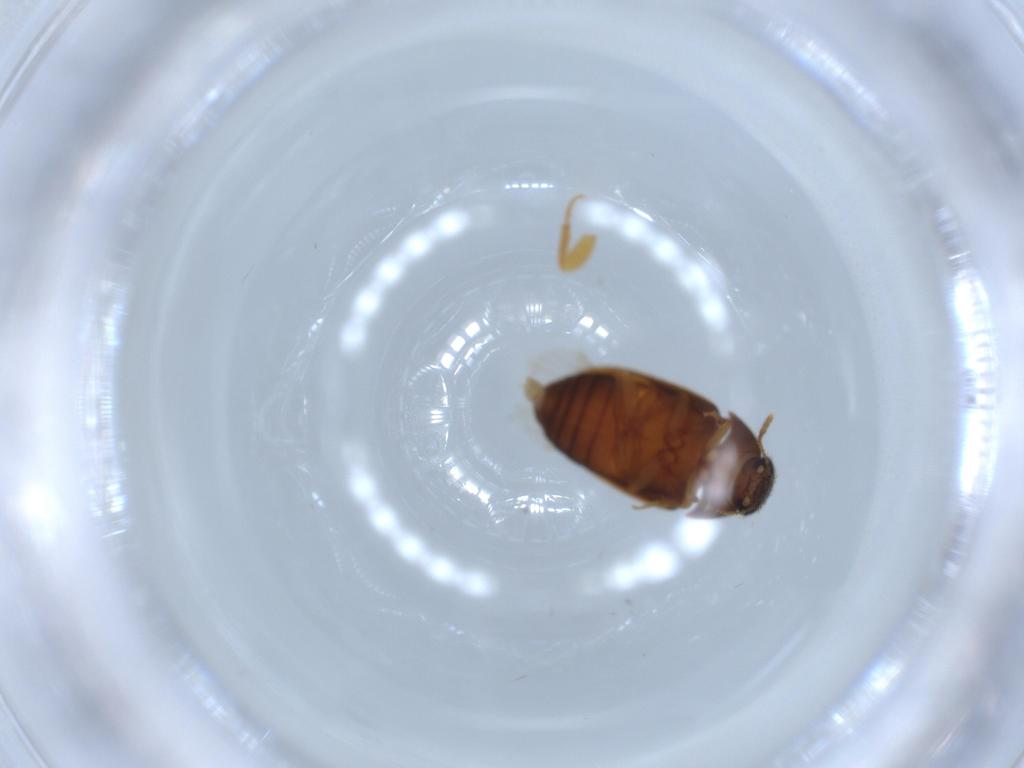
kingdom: Animalia
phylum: Arthropoda
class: Insecta
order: Coleoptera
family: Mycetophagidae
